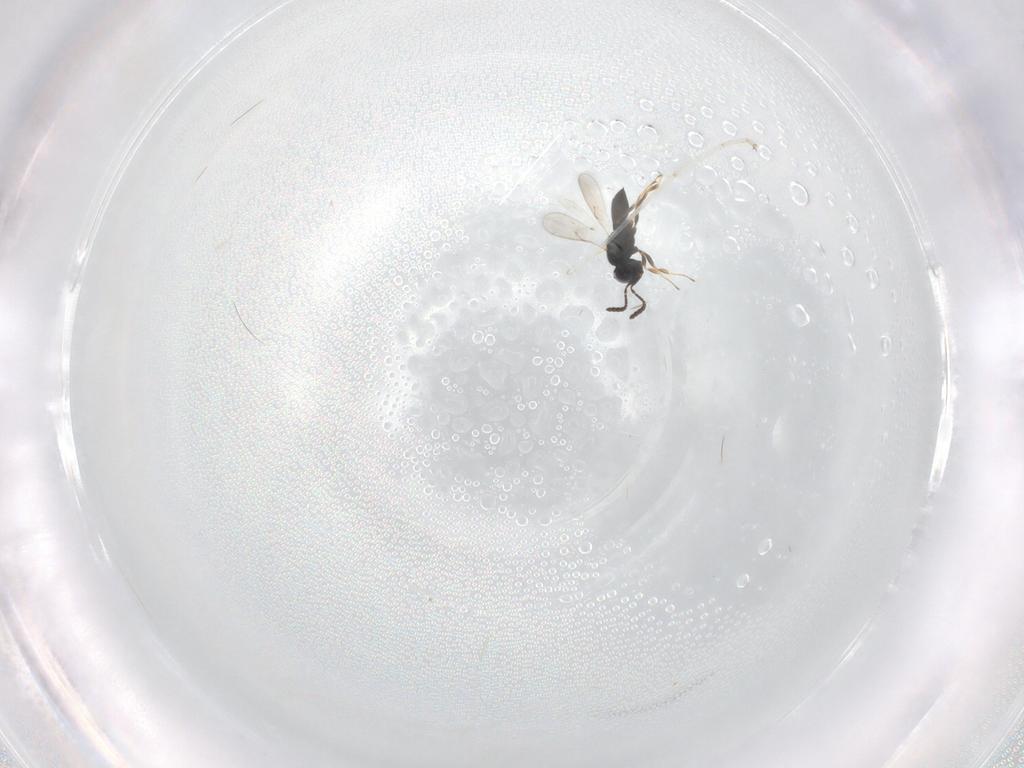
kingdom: Animalia
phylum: Arthropoda
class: Insecta
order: Hymenoptera
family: Scelionidae
